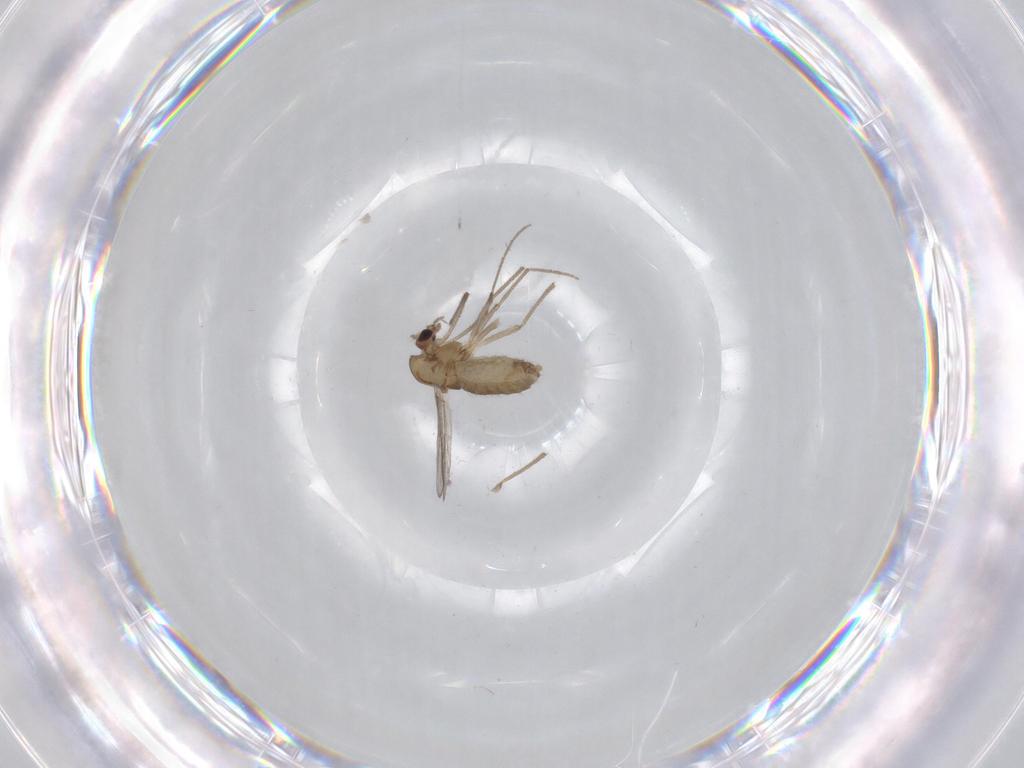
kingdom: Animalia
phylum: Arthropoda
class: Insecta
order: Diptera
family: Chironomidae
